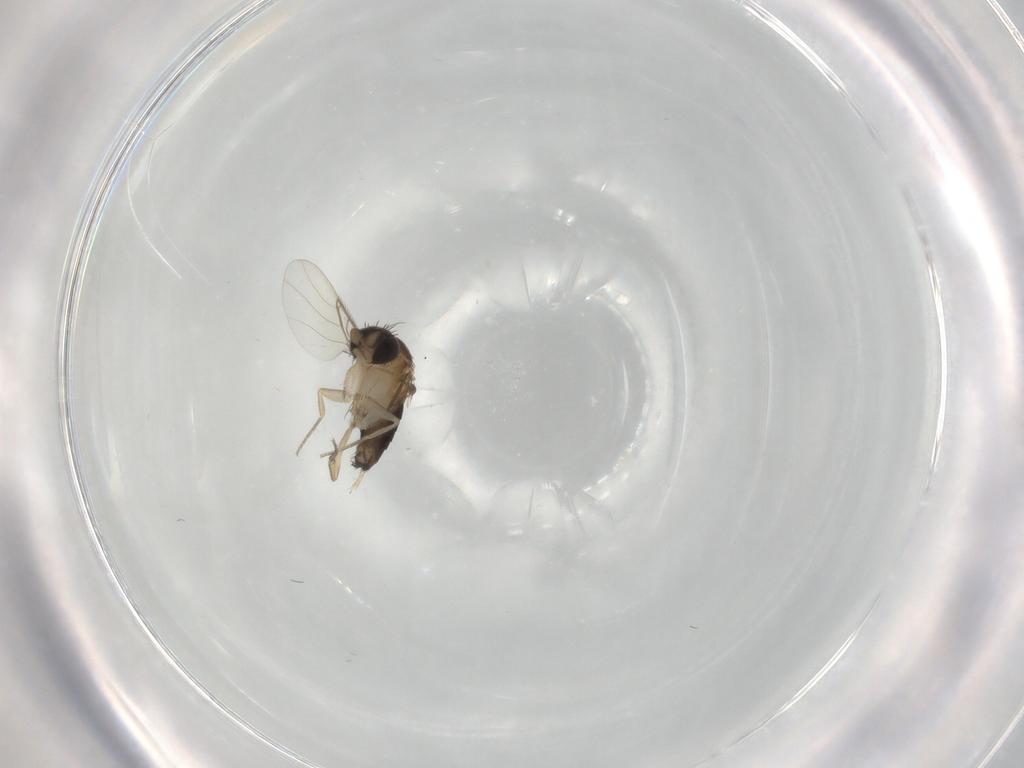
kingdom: Animalia
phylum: Arthropoda
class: Insecta
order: Diptera
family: Phoridae
